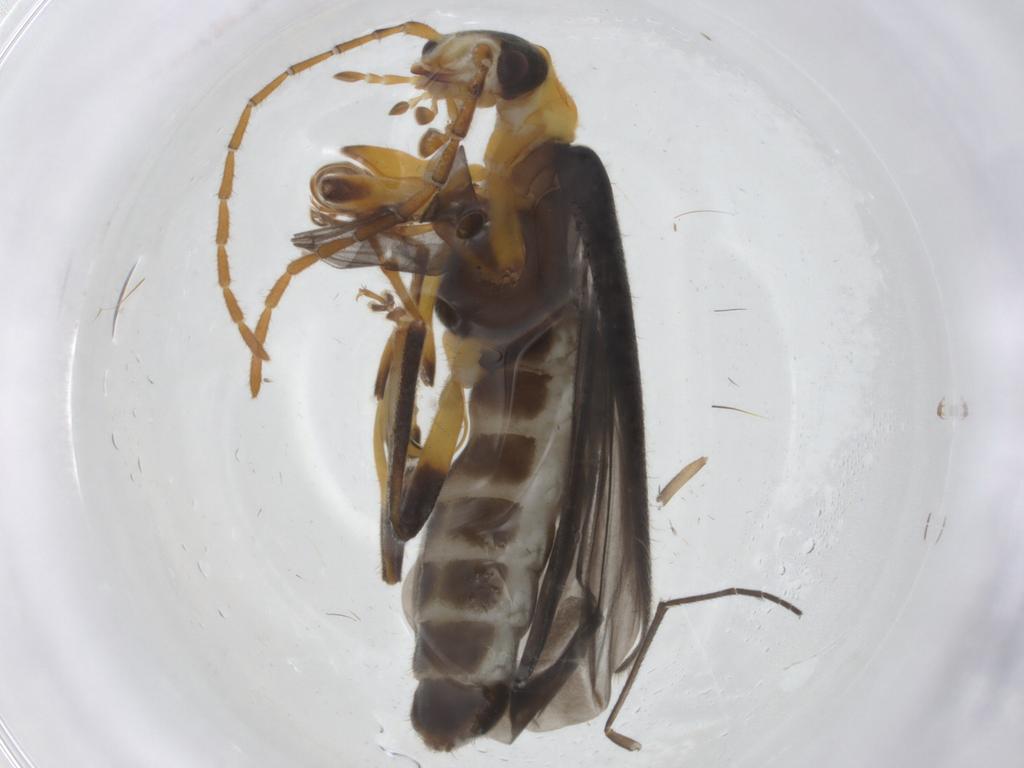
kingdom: Animalia
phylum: Arthropoda
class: Insecta
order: Coleoptera
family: Cantharidae
